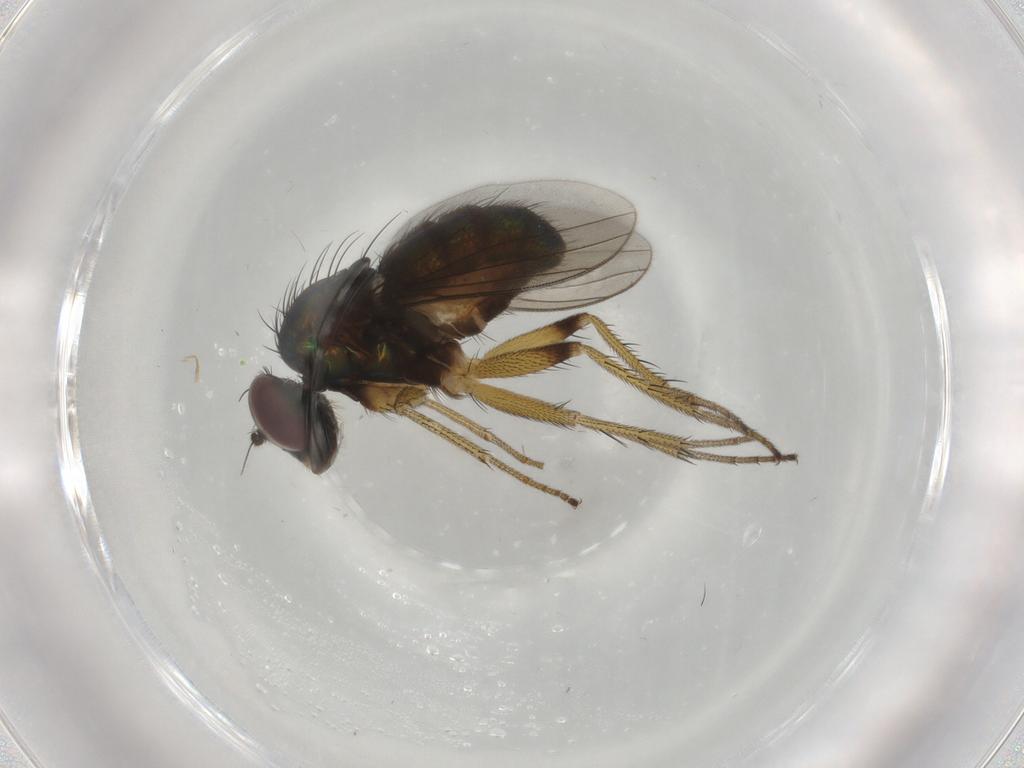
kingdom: Animalia
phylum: Arthropoda
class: Insecta
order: Diptera
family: Dolichopodidae
